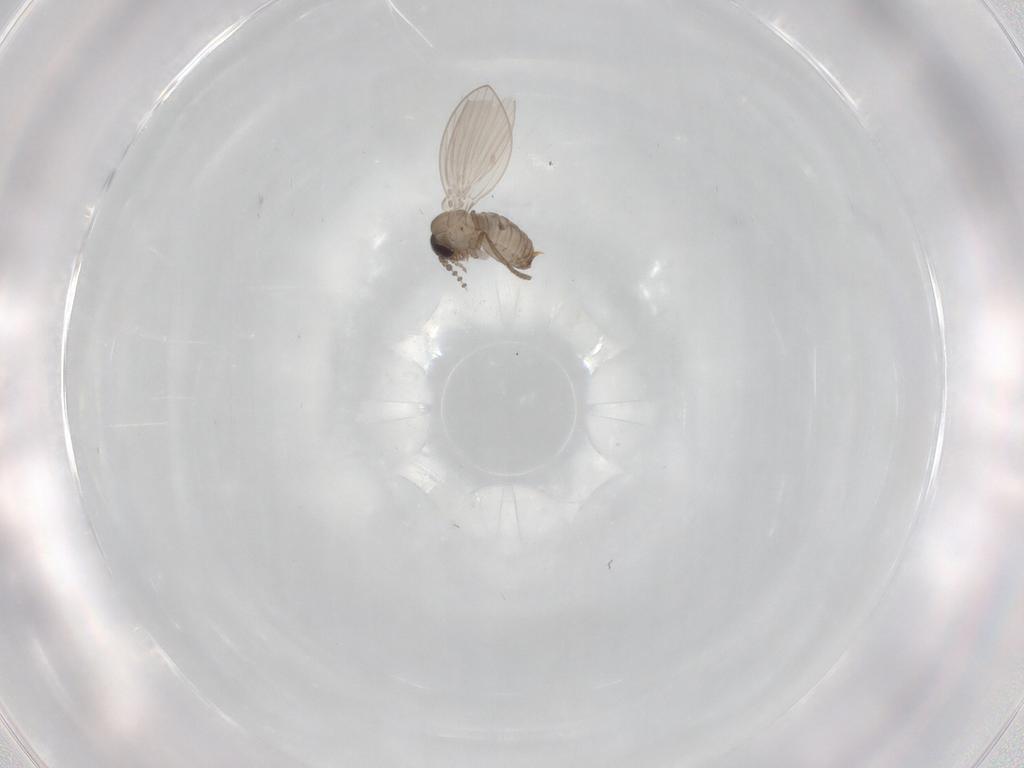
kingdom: Animalia
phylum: Arthropoda
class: Insecta
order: Diptera
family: Psychodidae
